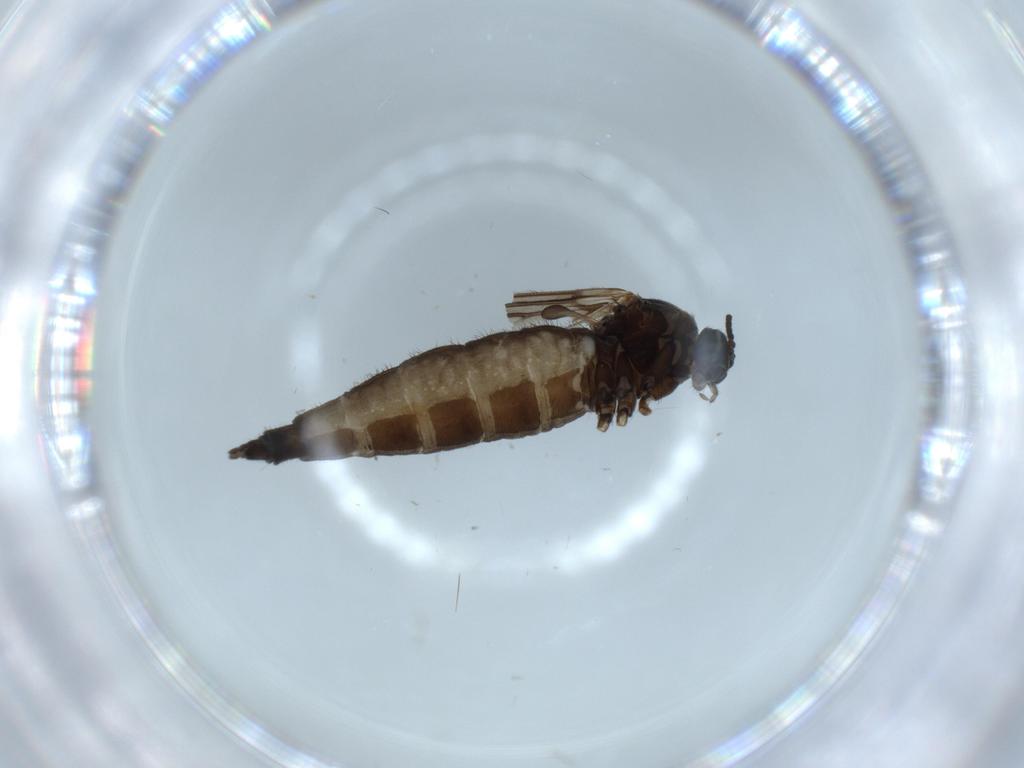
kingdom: Animalia
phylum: Arthropoda
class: Insecta
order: Diptera
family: Sciaridae
